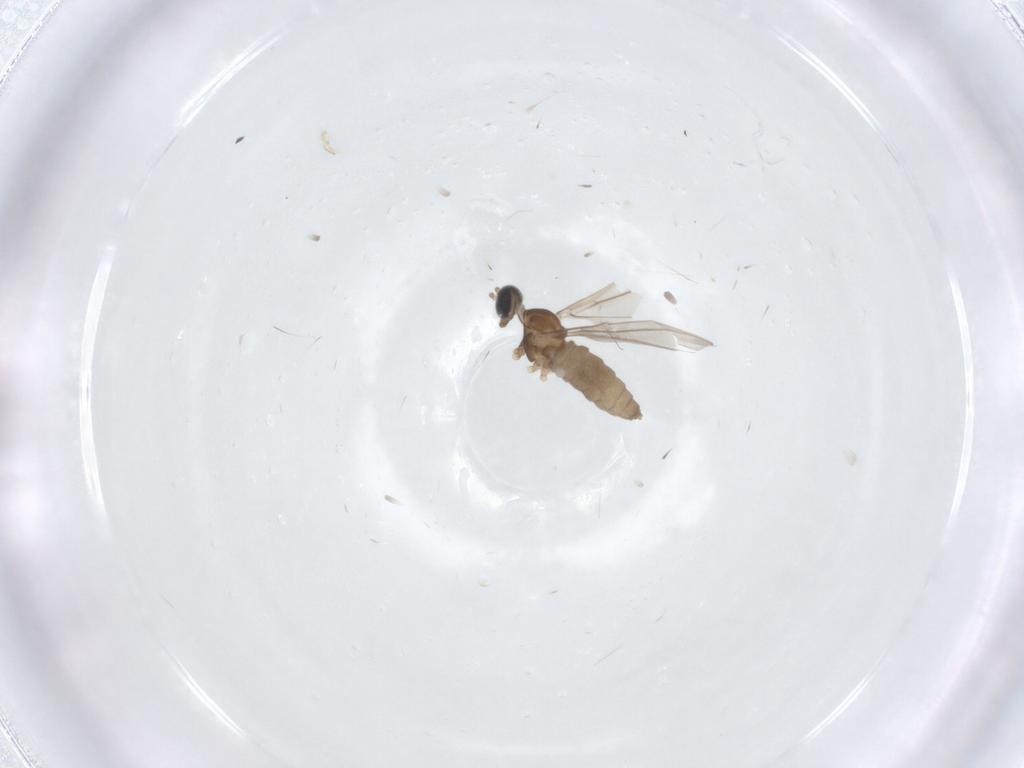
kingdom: Animalia
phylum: Arthropoda
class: Insecta
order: Diptera
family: Cecidomyiidae
